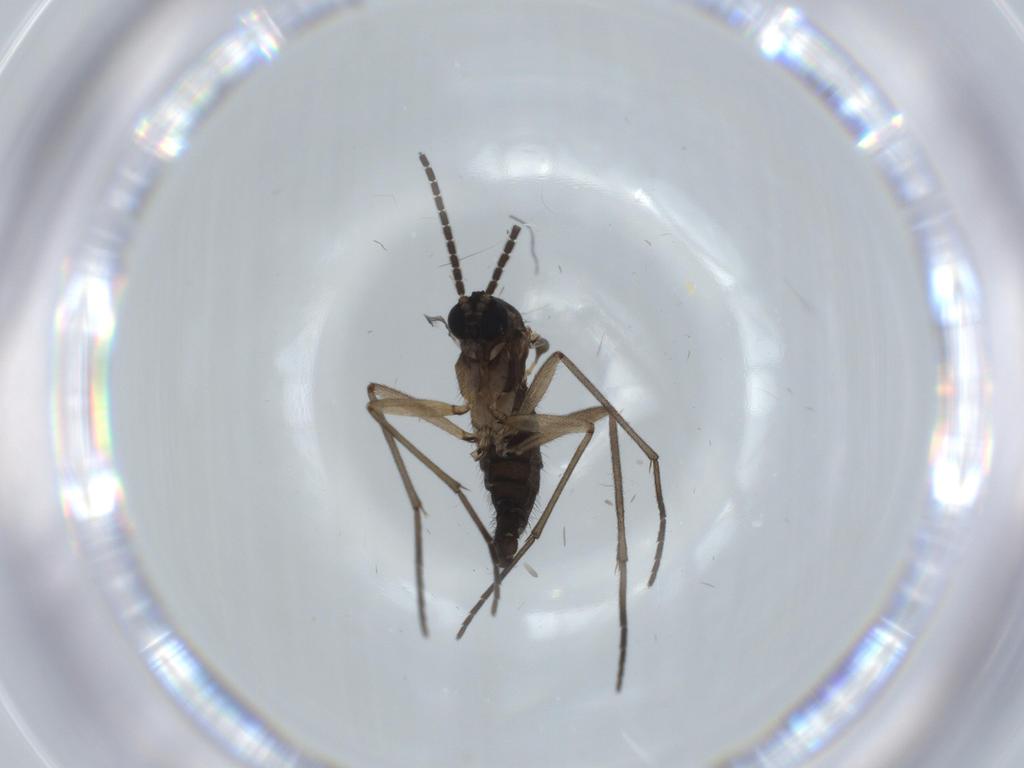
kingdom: Animalia
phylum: Arthropoda
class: Insecta
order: Diptera
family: Sciaridae
